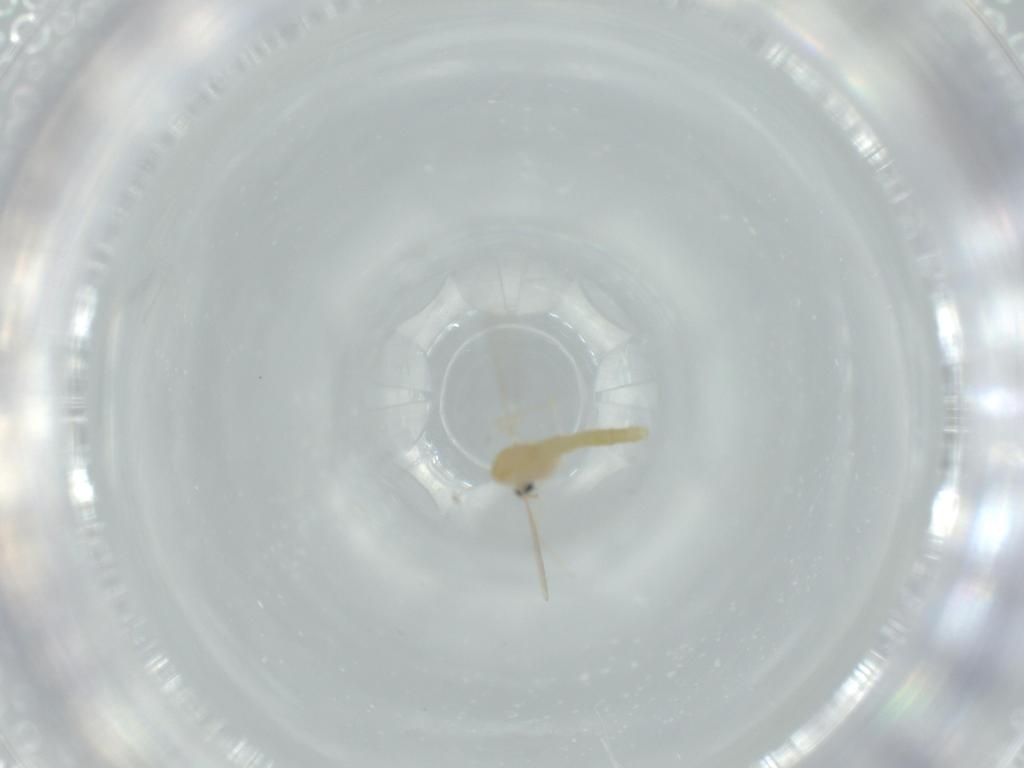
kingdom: Animalia
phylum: Arthropoda
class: Insecta
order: Diptera
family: Chironomidae
